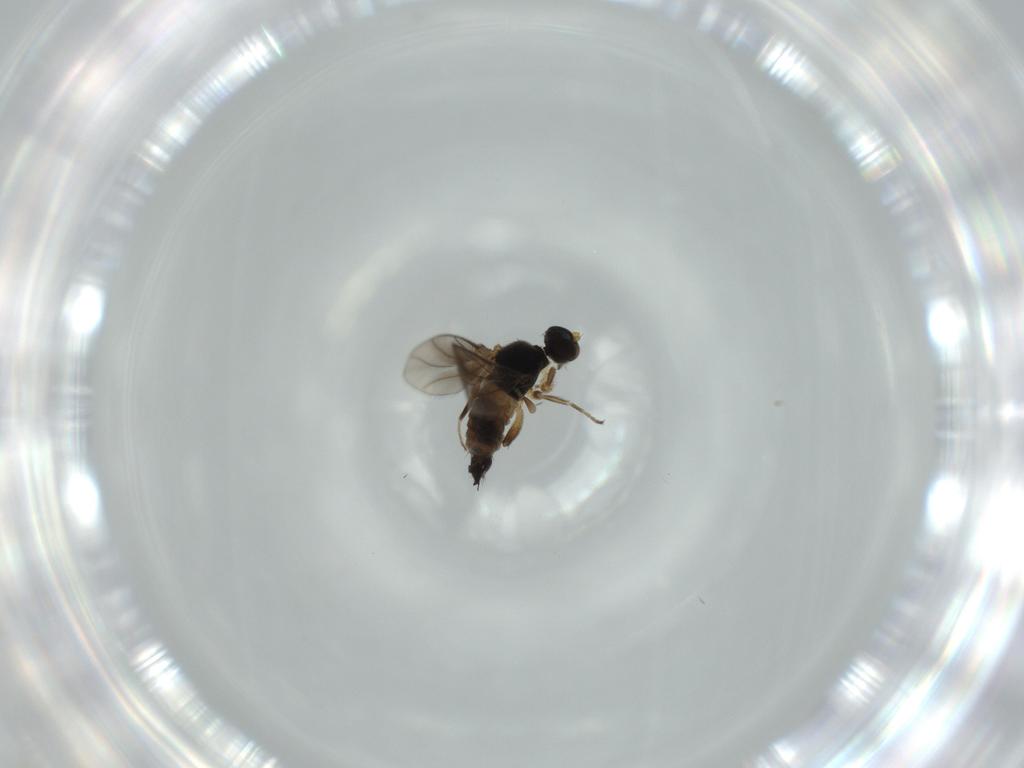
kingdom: Animalia
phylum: Arthropoda
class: Insecta
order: Diptera
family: Hybotidae
